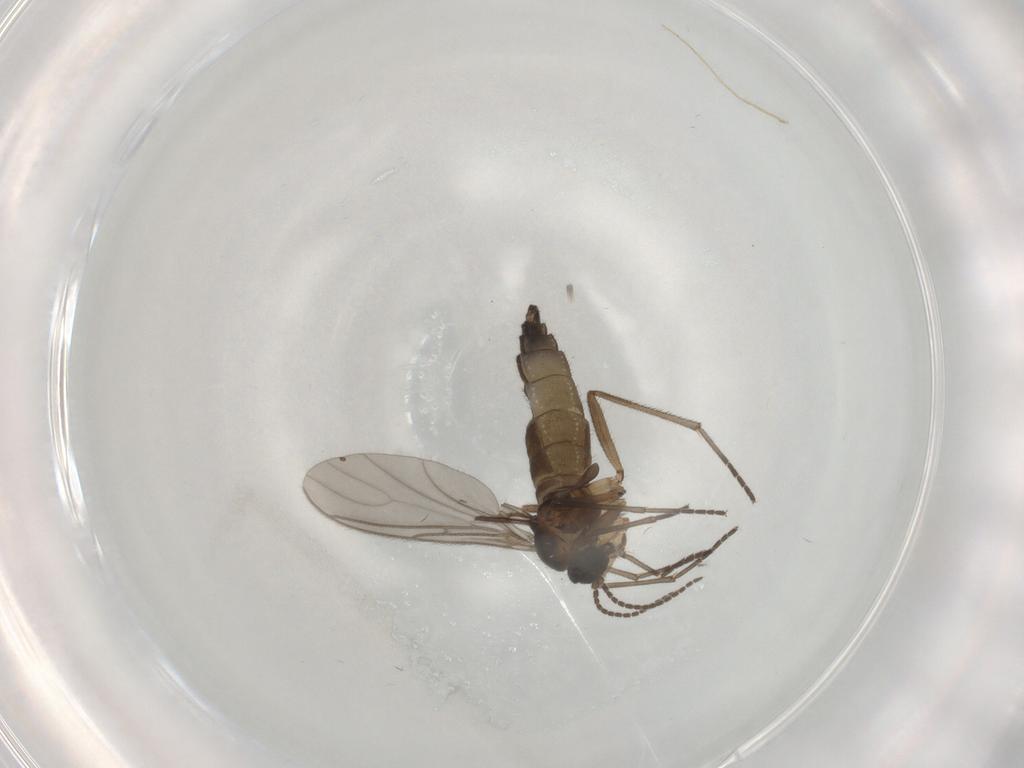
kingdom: Animalia
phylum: Arthropoda
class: Insecta
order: Diptera
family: Sciaridae
